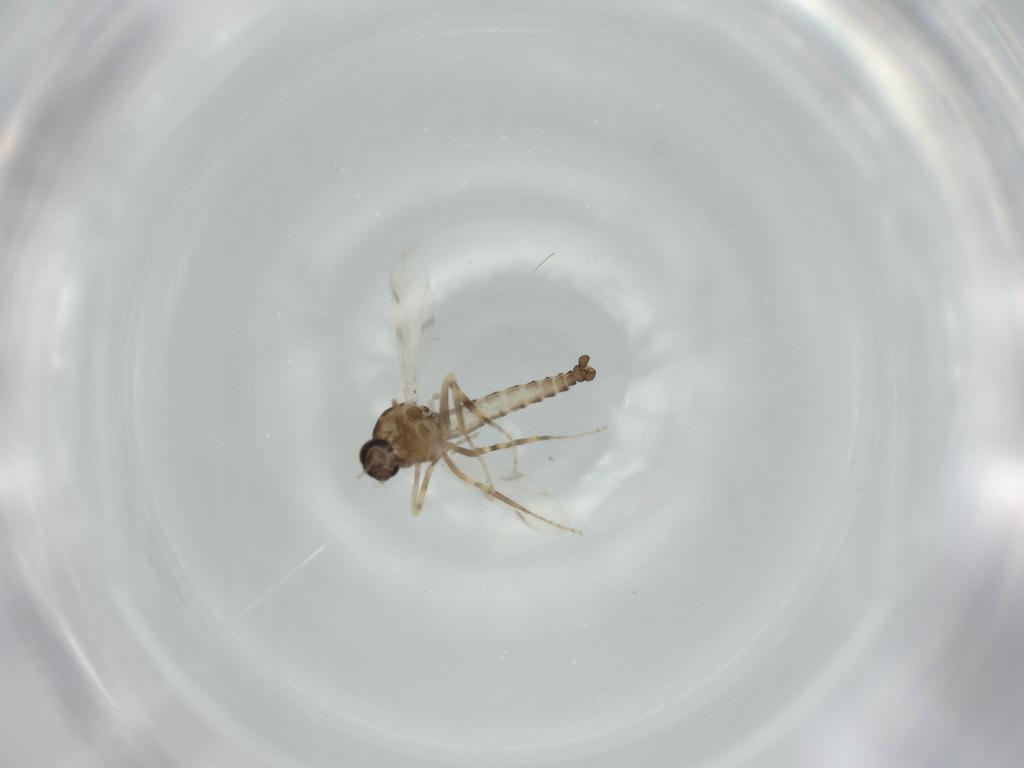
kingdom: Animalia
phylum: Arthropoda
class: Insecta
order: Diptera
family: Ceratopogonidae
